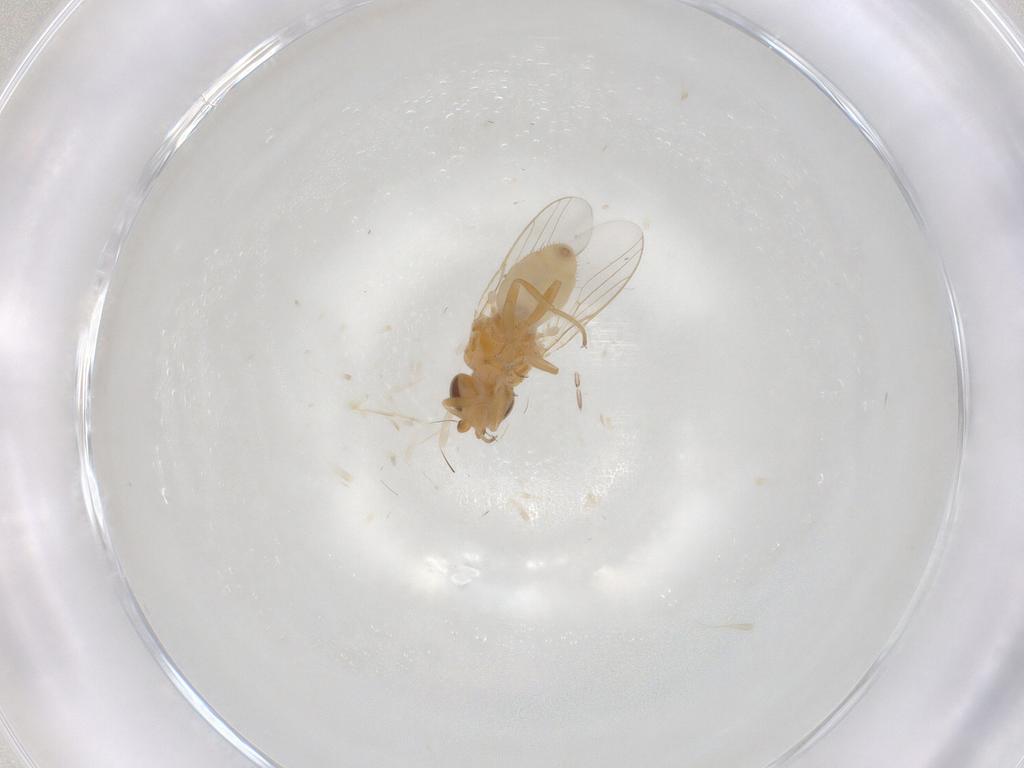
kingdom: Animalia
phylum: Arthropoda
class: Insecta
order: Diptera
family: Chloropidae
